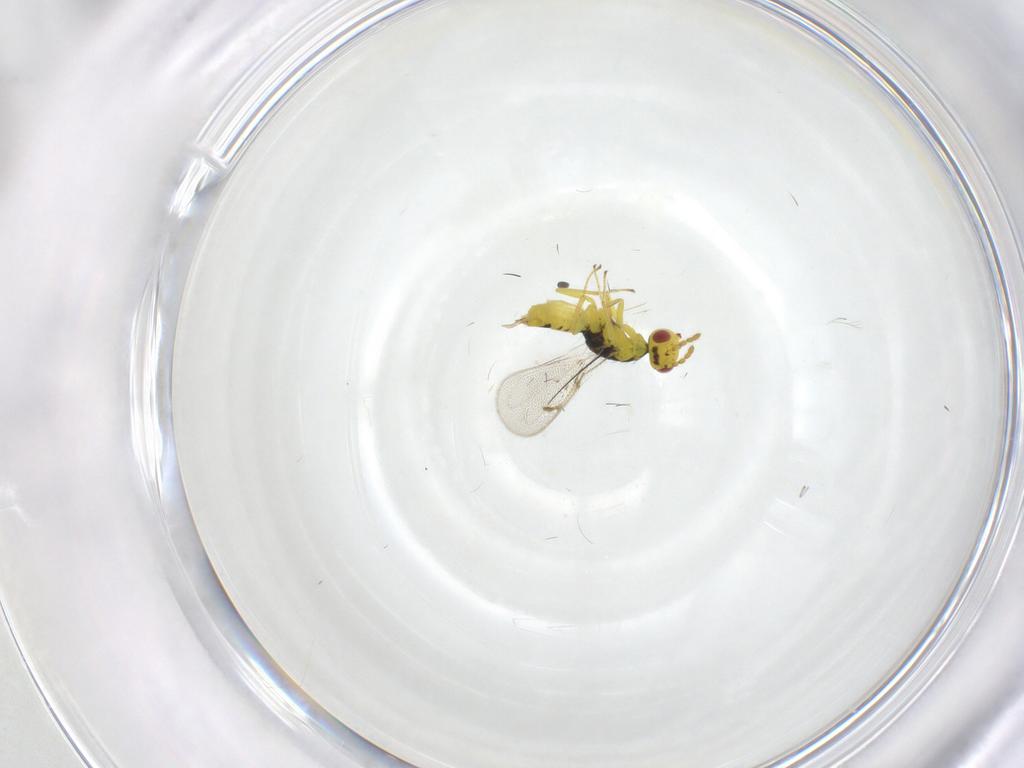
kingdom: Animalia
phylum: Arthropoda
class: Insecta
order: Hymenoptera
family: Eulophidae
